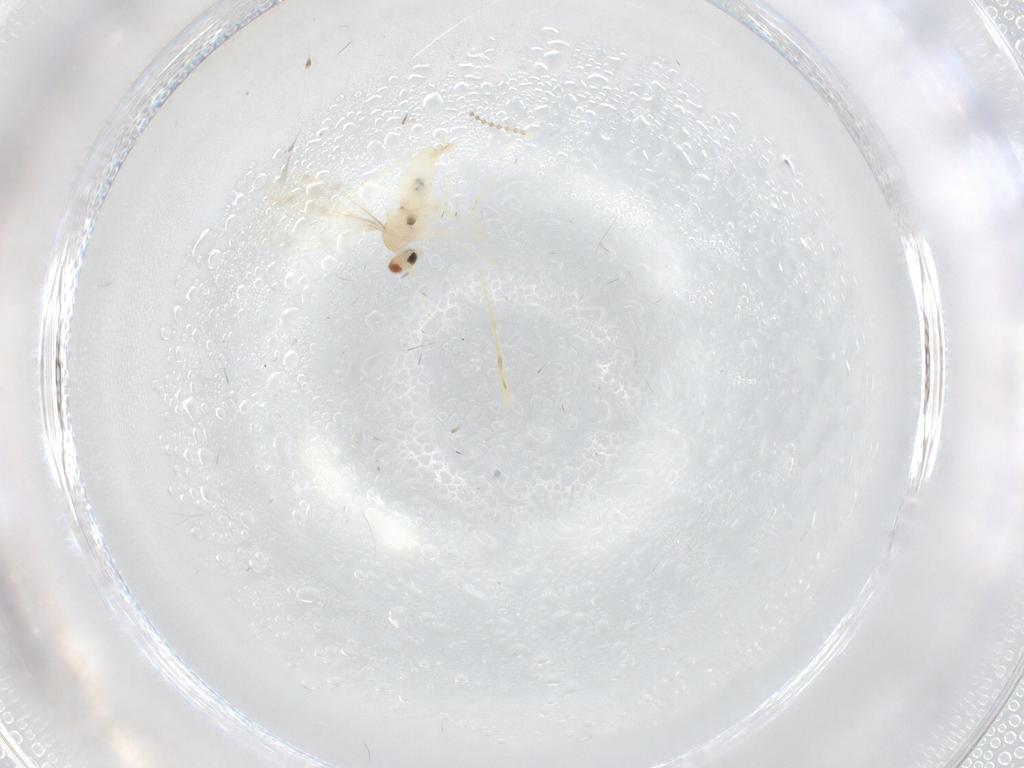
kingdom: Animalia
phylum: Arthropoda
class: Insecta
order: Diptera
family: Cecidomyiidae
